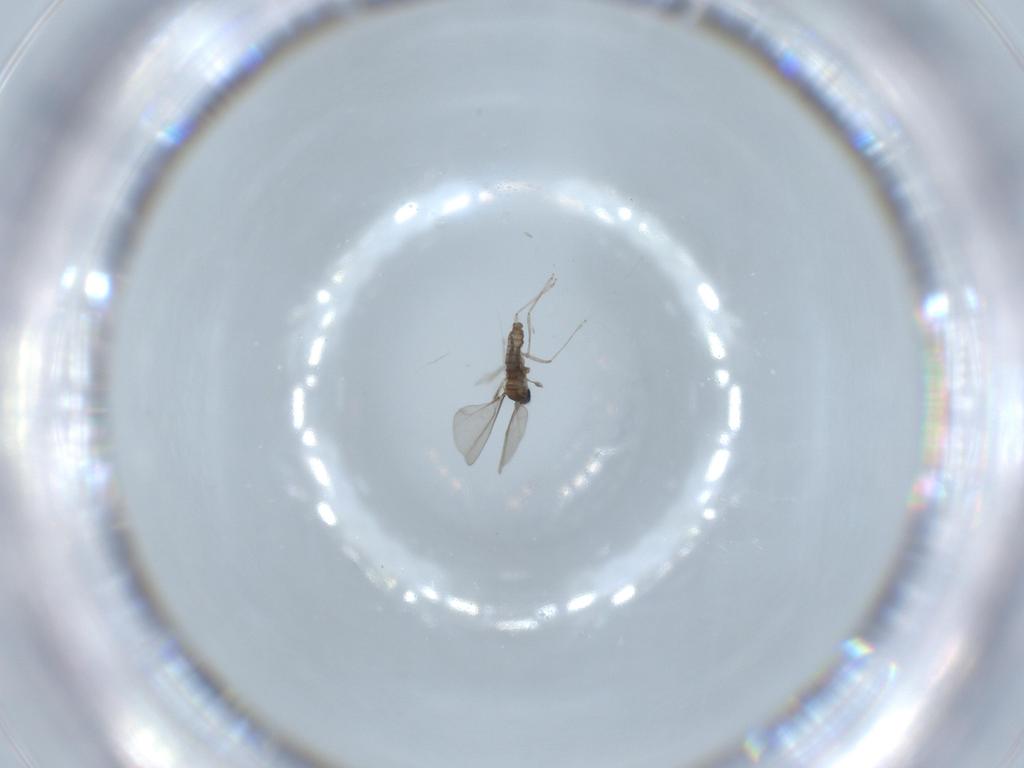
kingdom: Animalia
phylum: Arthropoda
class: Insecta
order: Diptera
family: Cecidomyiidae
